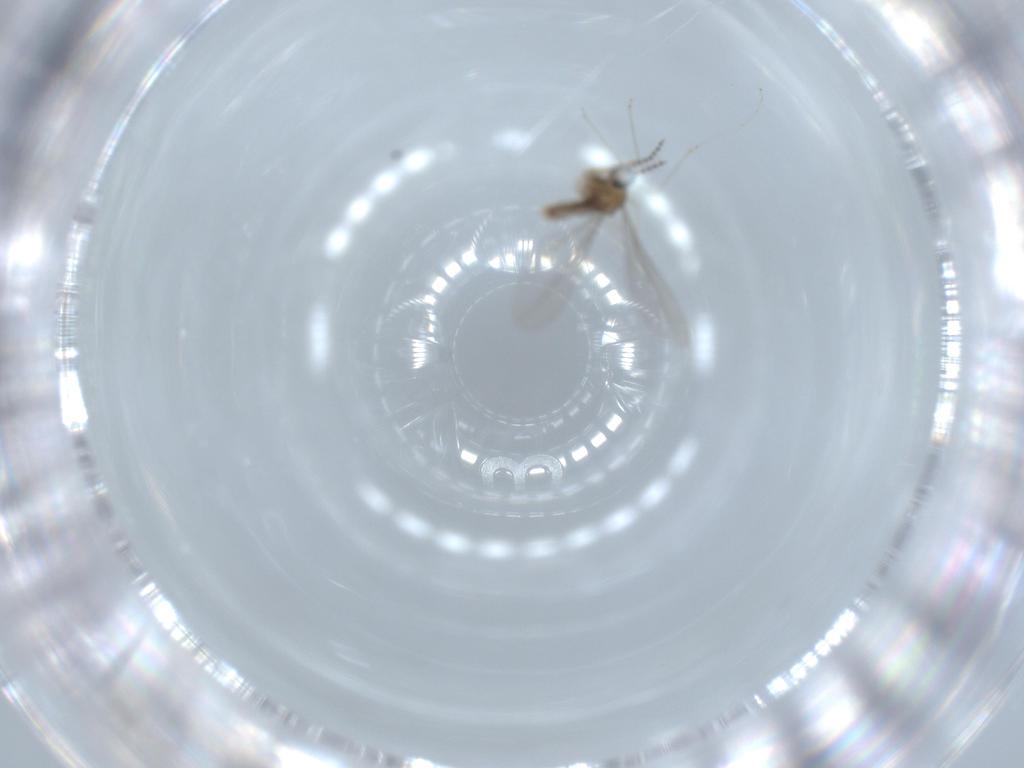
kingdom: Animalia
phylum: Arthropoda
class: Insecta
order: Diptera
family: Cecidomyiidae
